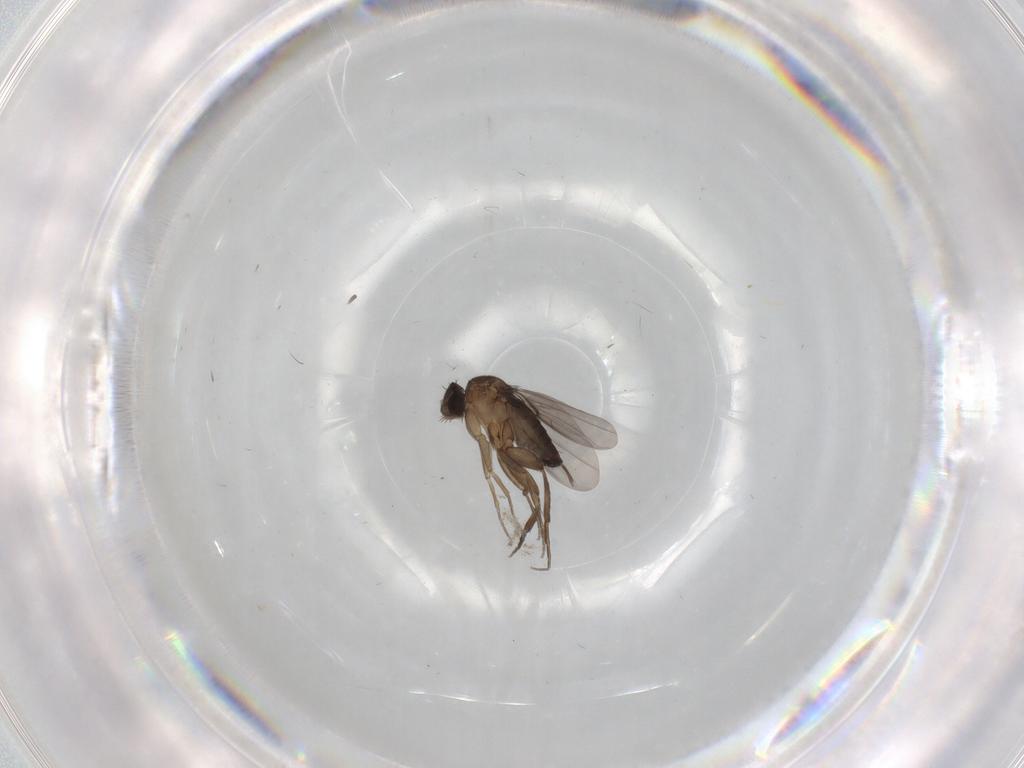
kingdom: Animalia
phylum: Arthropoda
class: Insecta
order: Diptera
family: Phoridae
